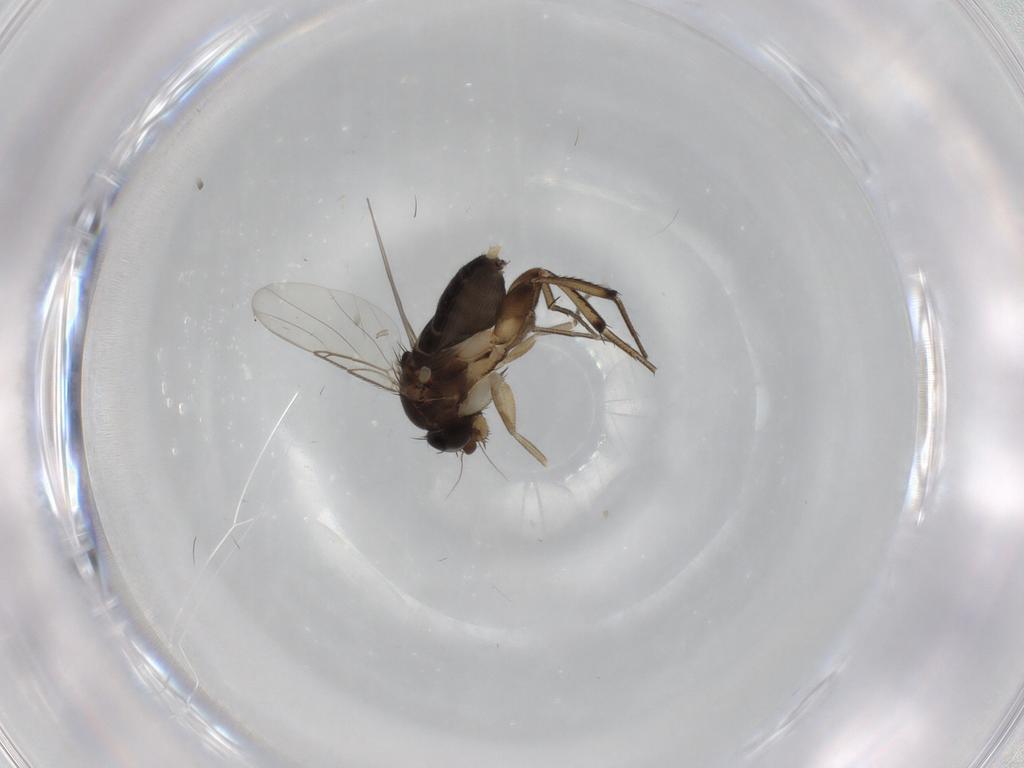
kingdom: Animalia
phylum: Arthropoda
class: Insecta
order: Diptera
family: Phoridae
